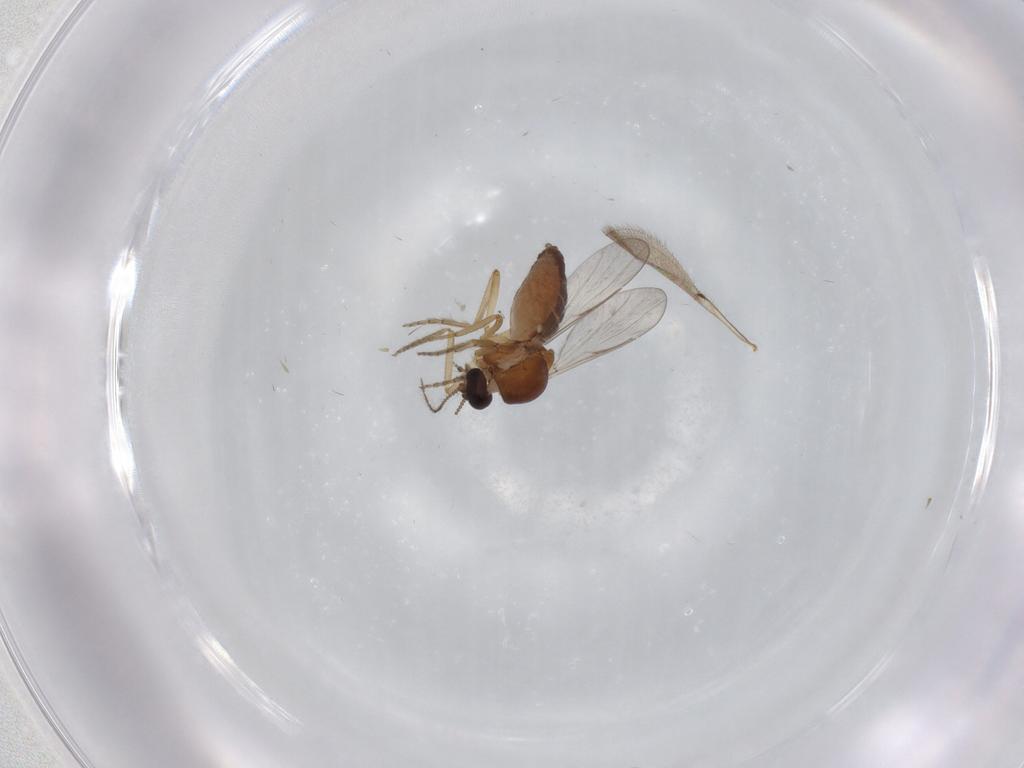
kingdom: Animalia
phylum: Arthropoda
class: Insecta
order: Diptera
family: Ceratopogonidae
